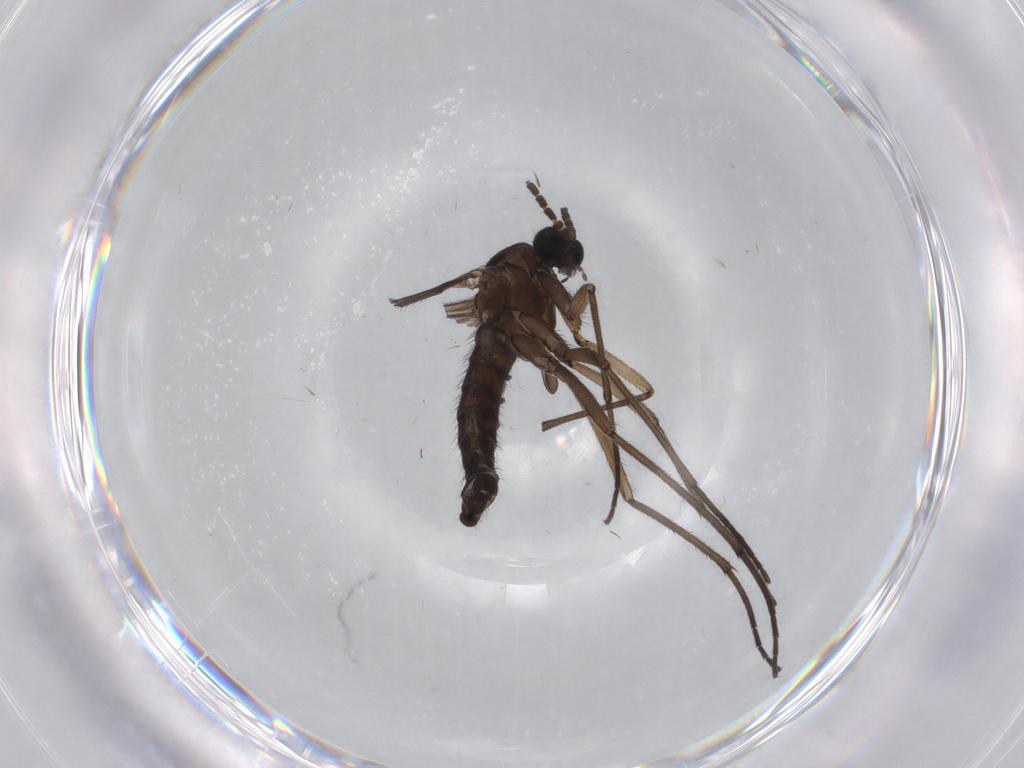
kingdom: Animalia
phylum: Arthropoda
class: Insecta
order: Diptera
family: Sciaridae
